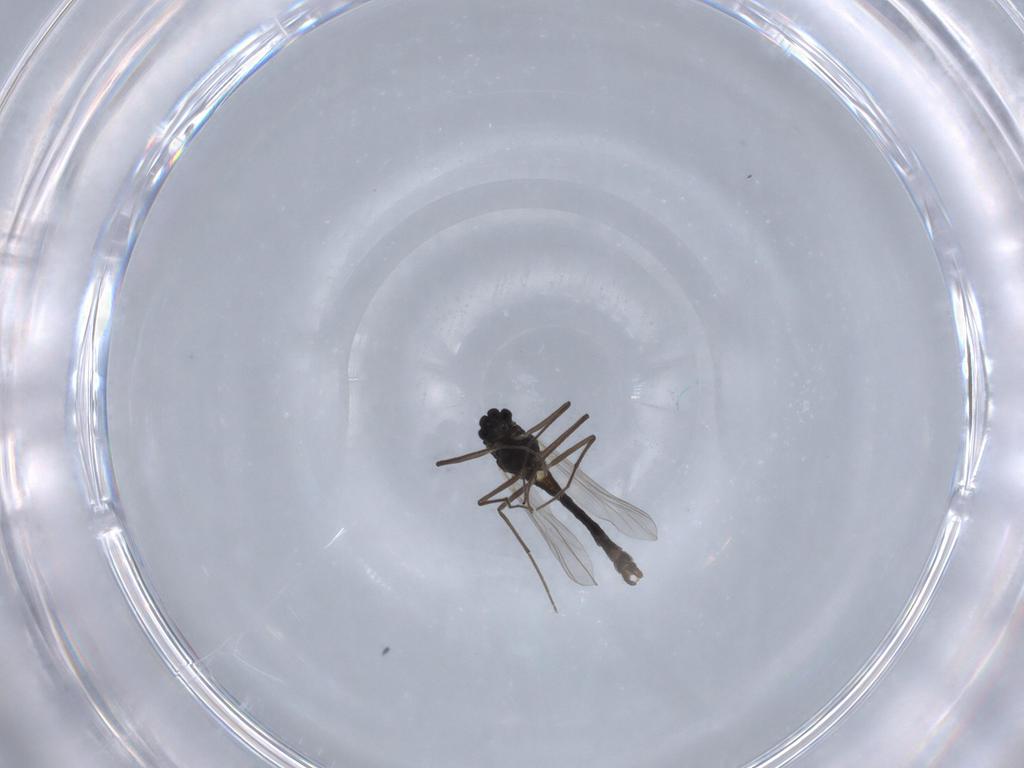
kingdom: Animalia
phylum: Arthropoda
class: Insecta
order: Diptera
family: Chironomidae
